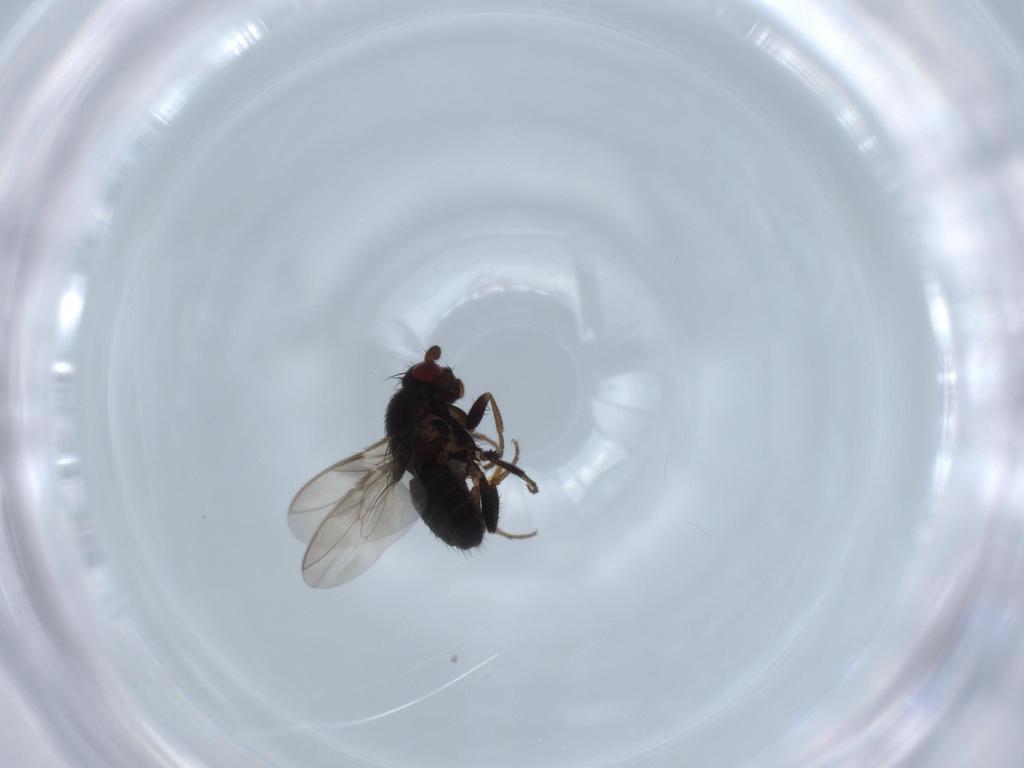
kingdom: Animalia
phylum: Arthropoda
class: Insecta
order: Diptera
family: Sphaeroceridae
